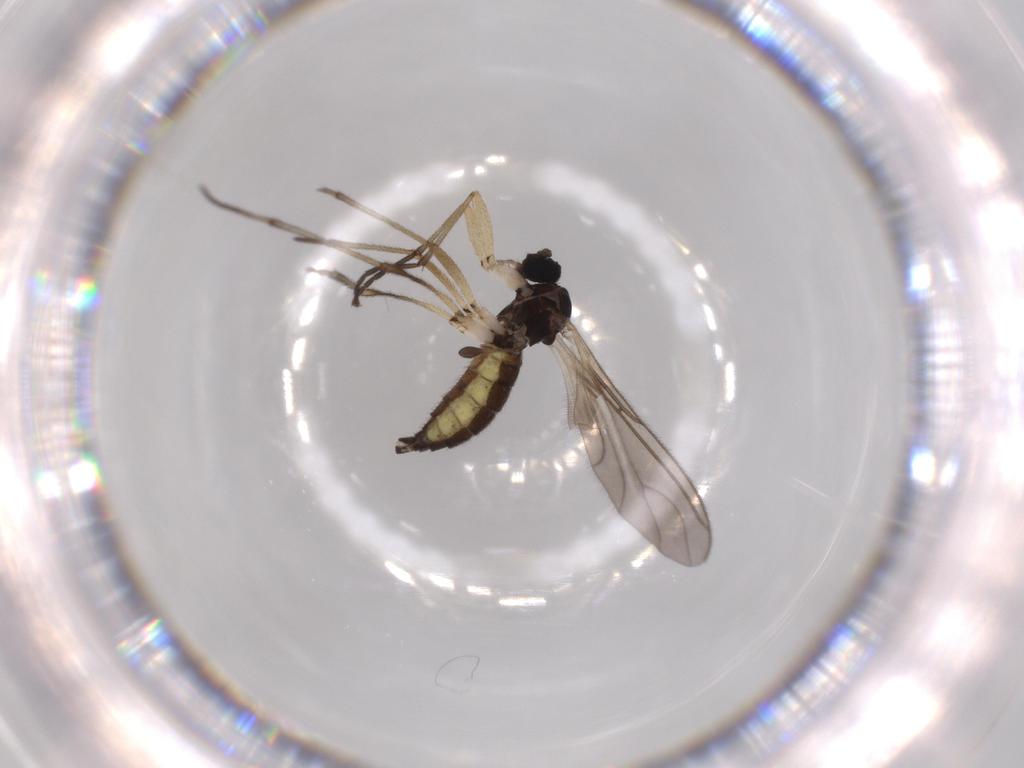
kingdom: Animalia
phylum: Arthropoda
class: Insecta
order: Diptera
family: Sciaridae
